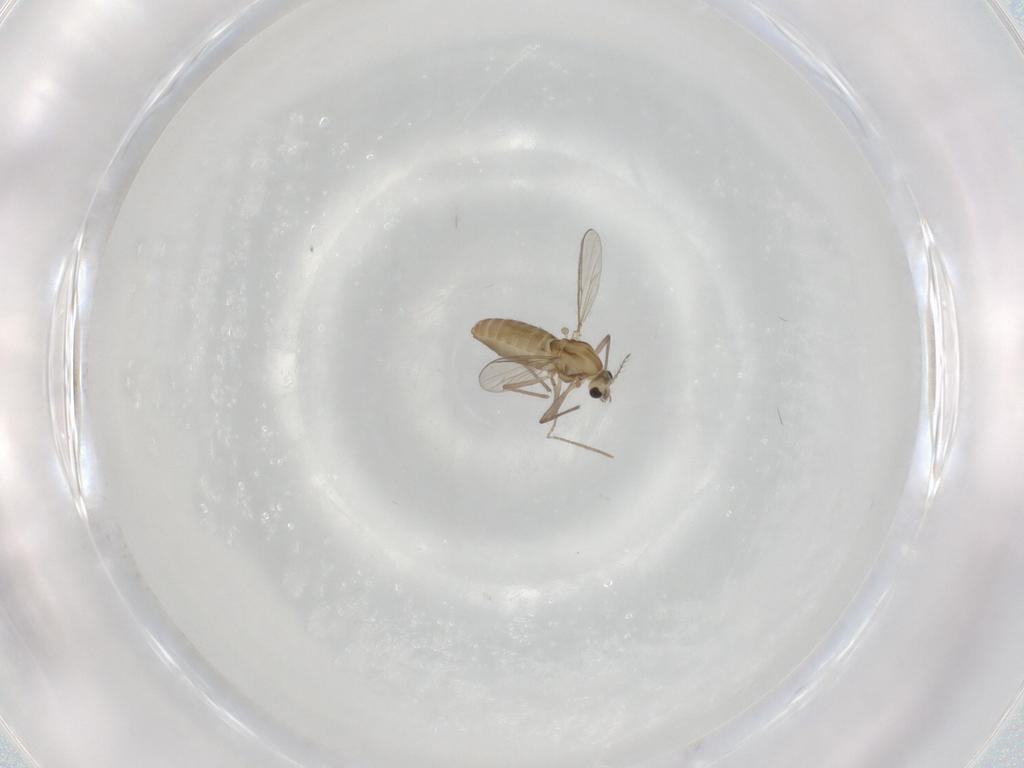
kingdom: Animalia
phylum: Arthropoda
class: Insecta
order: Diptera
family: Chironomidae
